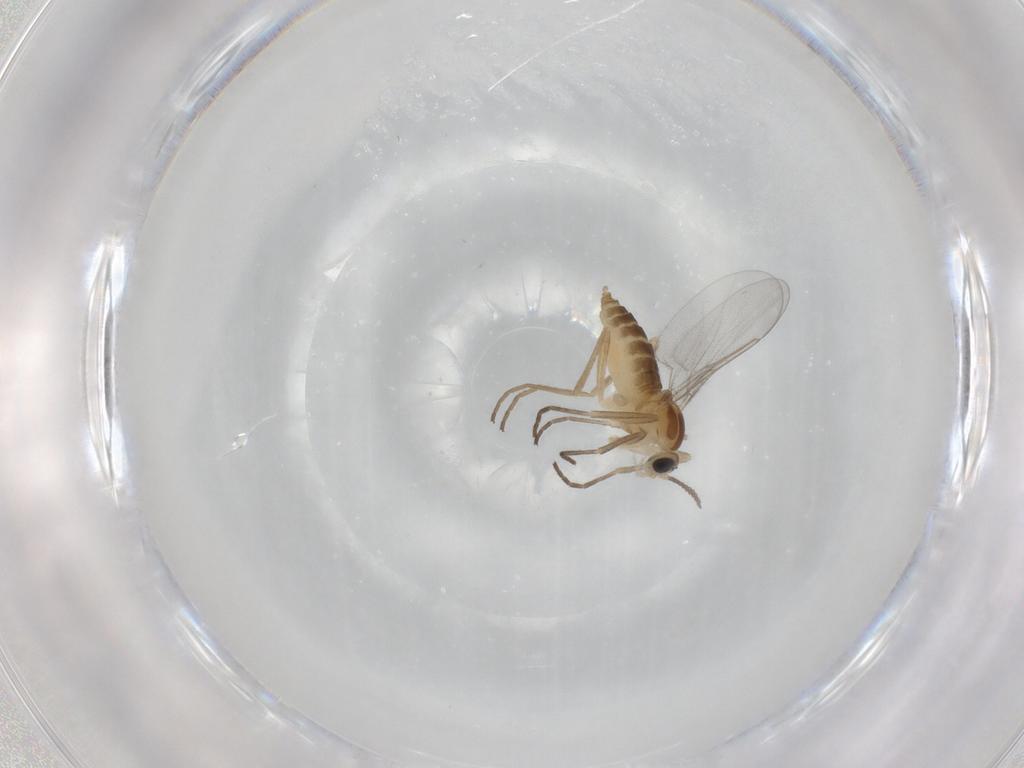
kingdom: Animalia
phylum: Arthropoda
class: Insecta
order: Diptera
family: Cecidomyiidae
